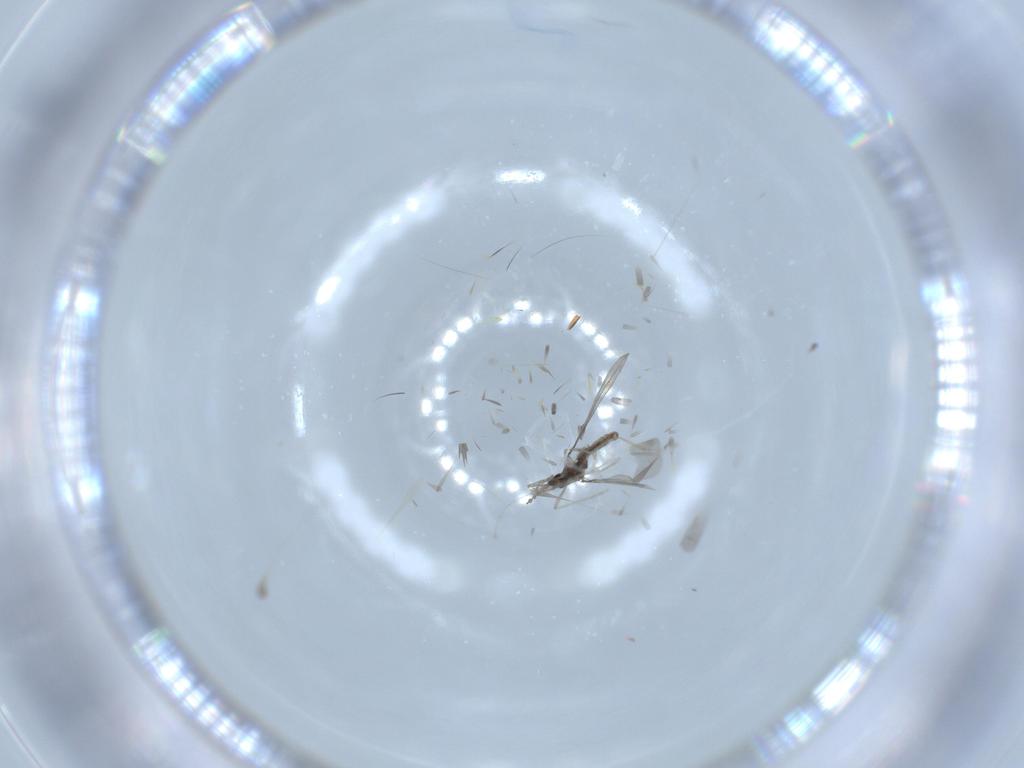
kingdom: Animalia
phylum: Arthropoda
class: Insecta
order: Diptera
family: Cecidomyiidae
